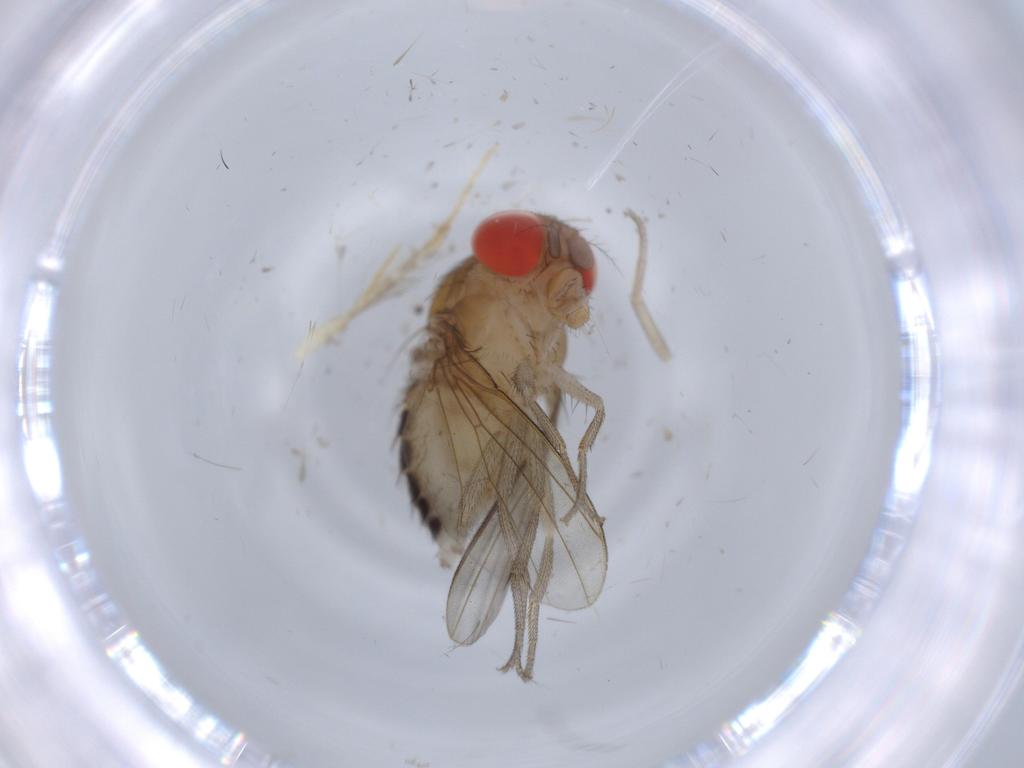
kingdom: Animalia
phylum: Arthropoda
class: Insecta
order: Diptera
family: Drosophilidae
